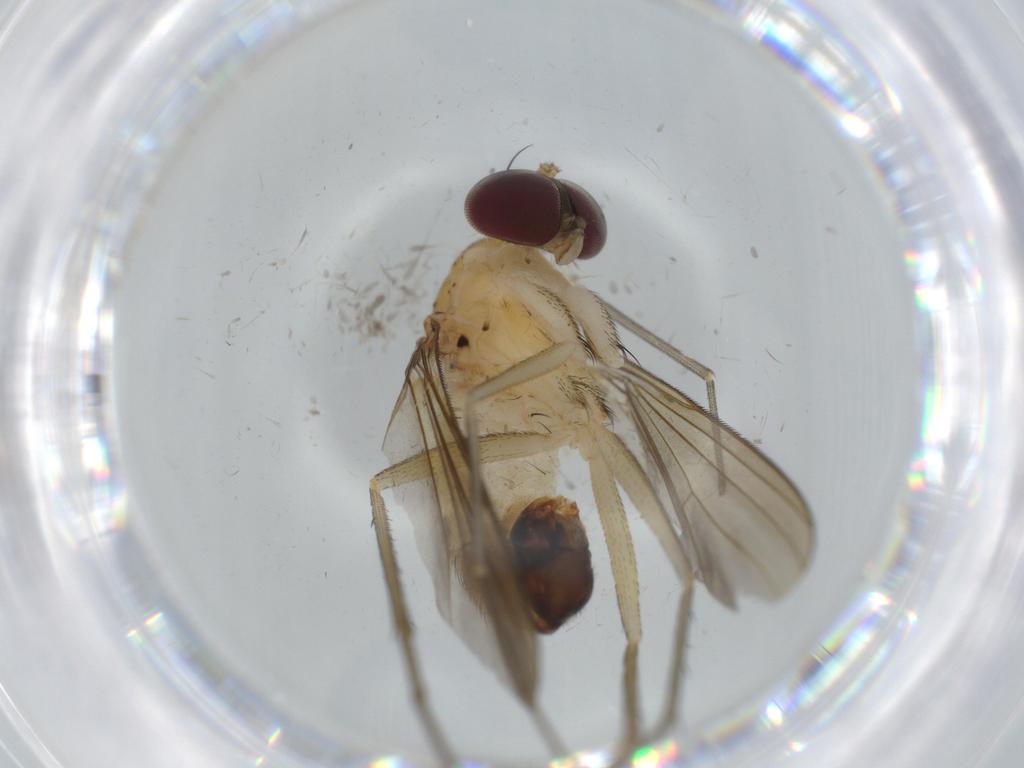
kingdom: Animalia
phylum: Arthropoda
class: Insecta
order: Diptera
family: Dolichopodidae
